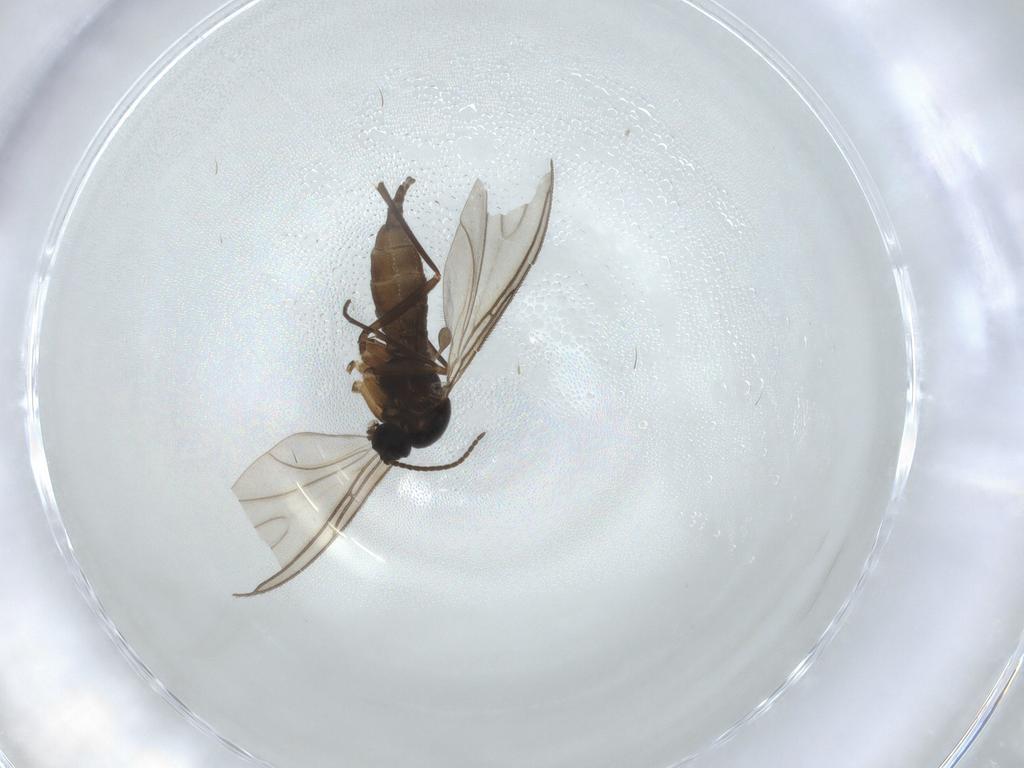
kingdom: Animalia
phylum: Arthropoda
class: Insecta
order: Diptera
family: Sciaridae
